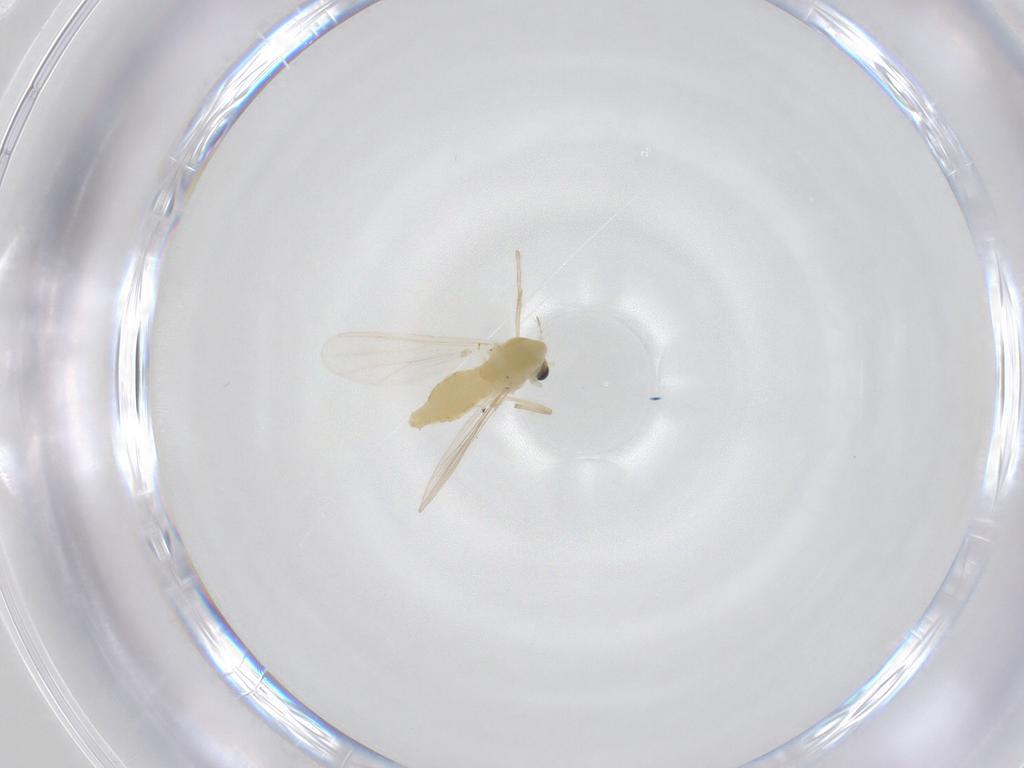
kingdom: Animalia
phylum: Arthropoda
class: Insecta
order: Diptera
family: Chironomidae
